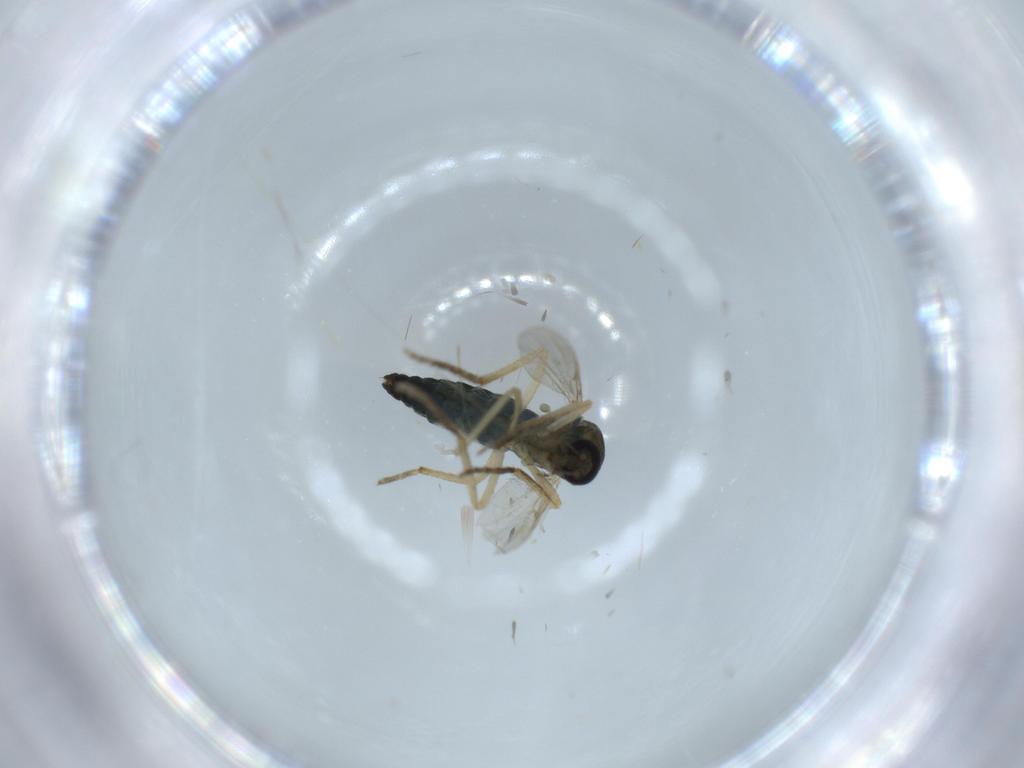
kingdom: Animalia
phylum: Arthropoda
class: Insecta
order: Diptera
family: Ceratopogonidae
